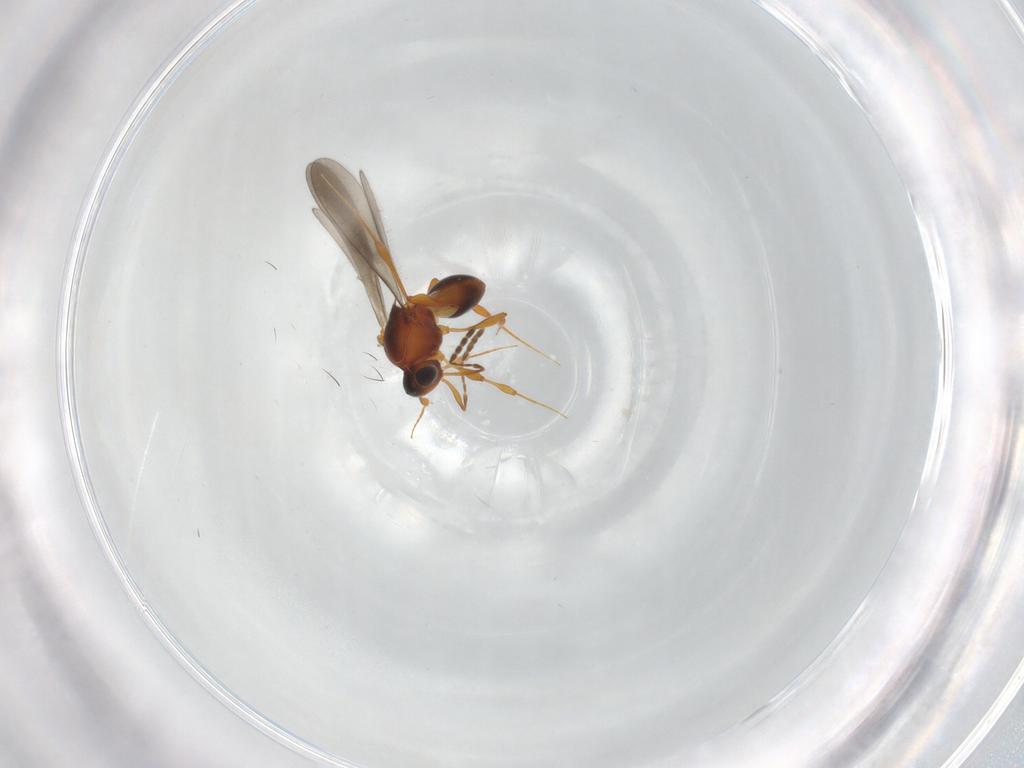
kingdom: Animalia
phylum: Arthropoda
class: Insecta
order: Hymenoptera
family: Platygastridae
